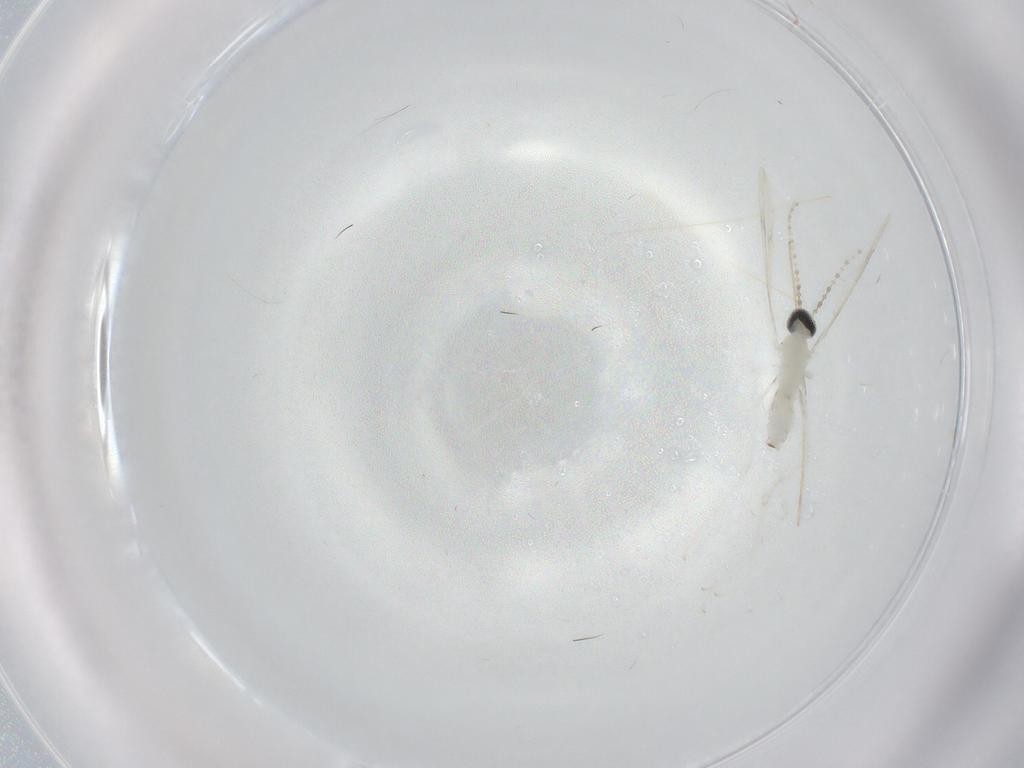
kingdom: Animalia
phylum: Arthropoda
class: Insecta
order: Diptera
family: Cecidomyiidae
